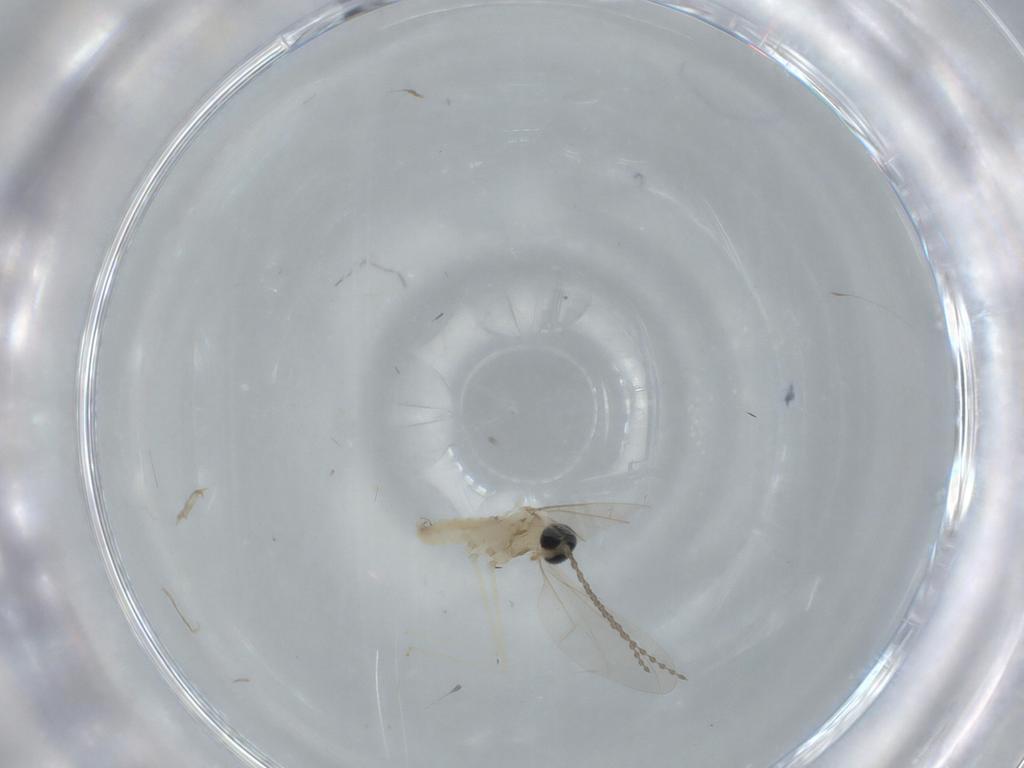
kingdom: Animalia
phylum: Arthropoda
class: Insecta
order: Diptera
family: Cecidomyiidae
